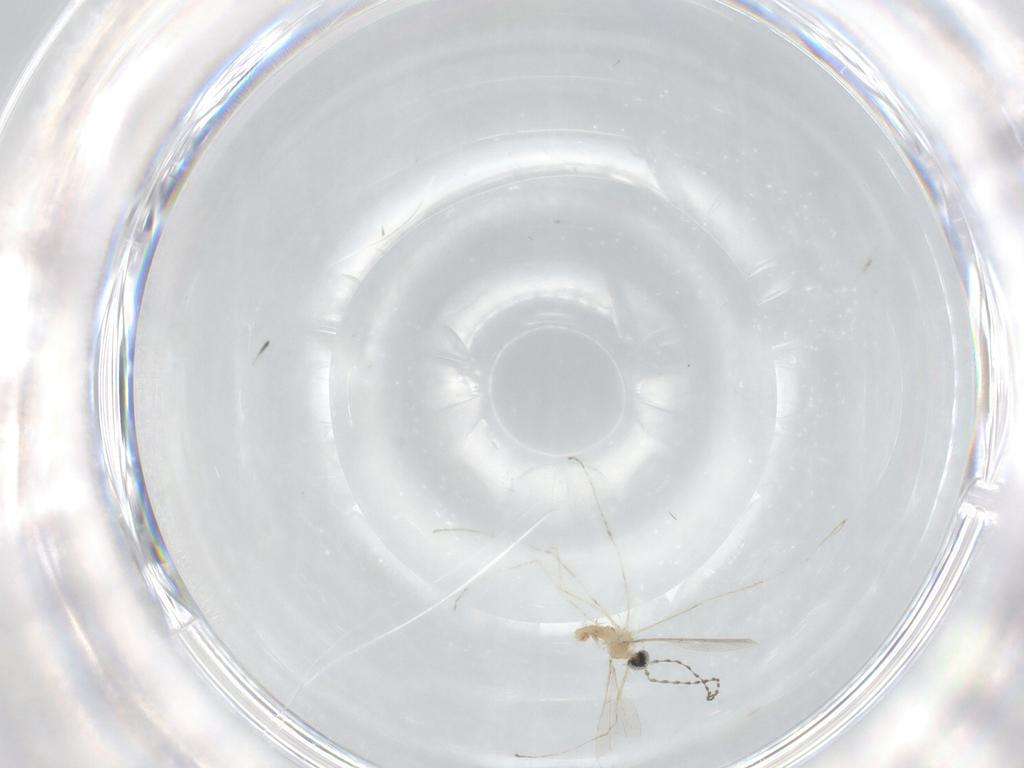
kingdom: Animalia
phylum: Arthropoda
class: Insecta
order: Diptera
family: Cecidomyiidae
